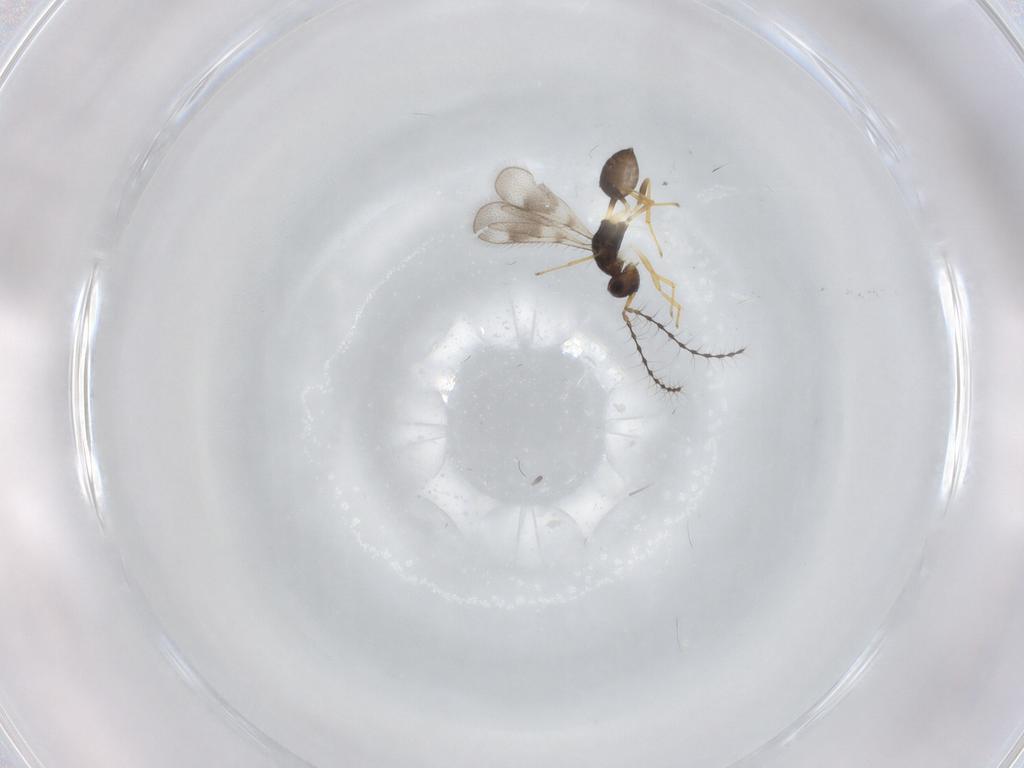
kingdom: Animalia
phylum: Arthropoda
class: Insecta
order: Hymenoptera
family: Diparidae
